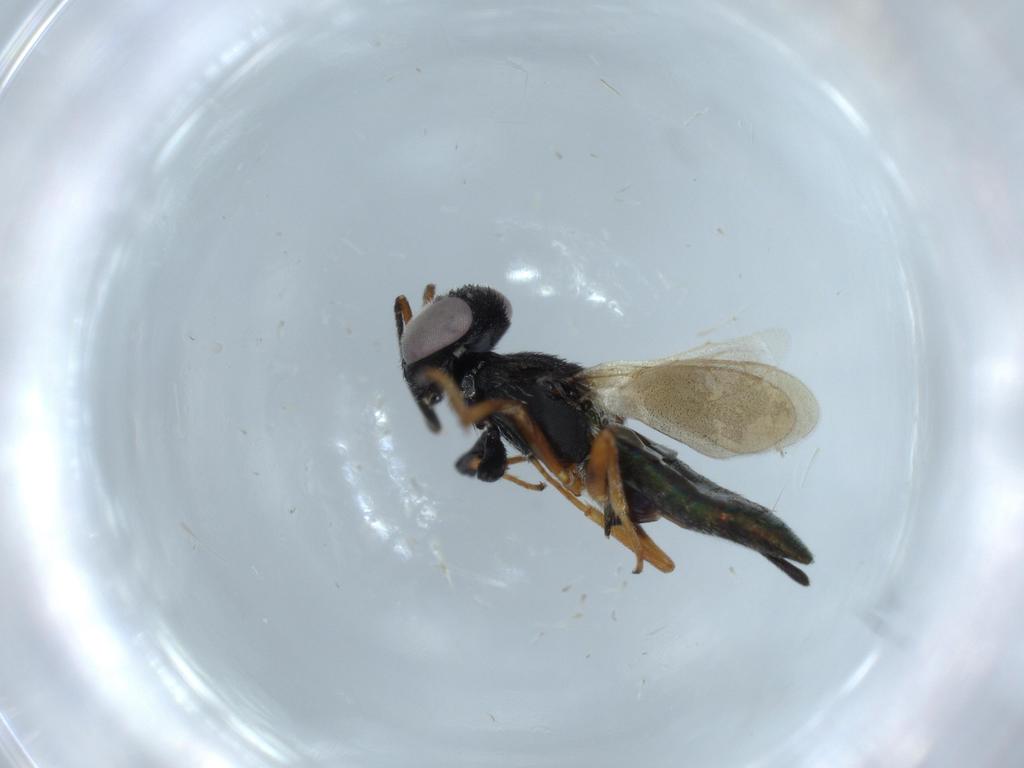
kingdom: Animalia
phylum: Arthropoda
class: Insecta
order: Hymenoptera
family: Eupelmidae
